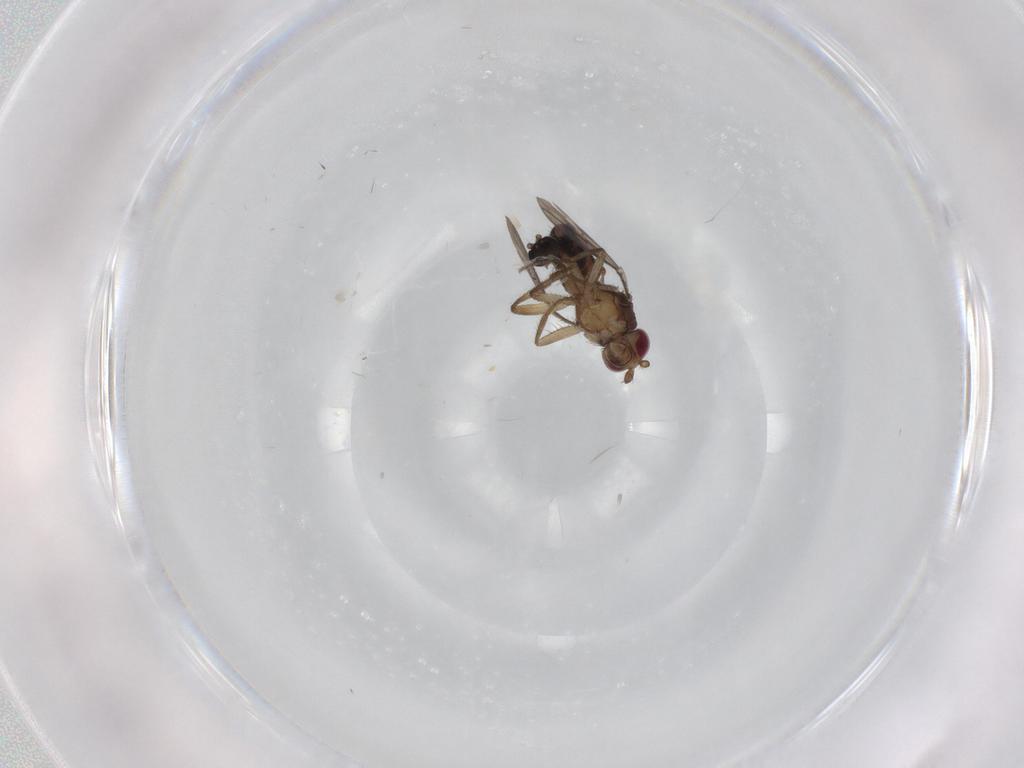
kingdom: Animalia
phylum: Arthropoda
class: Insecta
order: Diptera
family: Sphaeroceridae
